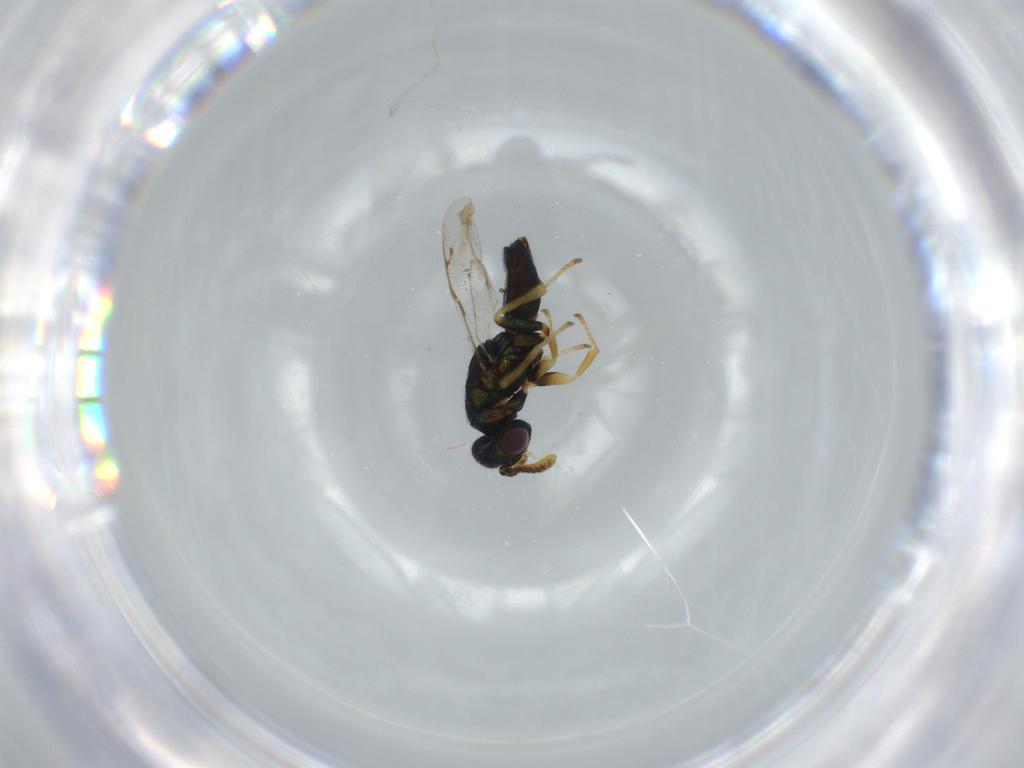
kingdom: Animalia
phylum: Arthropoda
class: Insecta
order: Hymenoptera
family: Pirenidae
